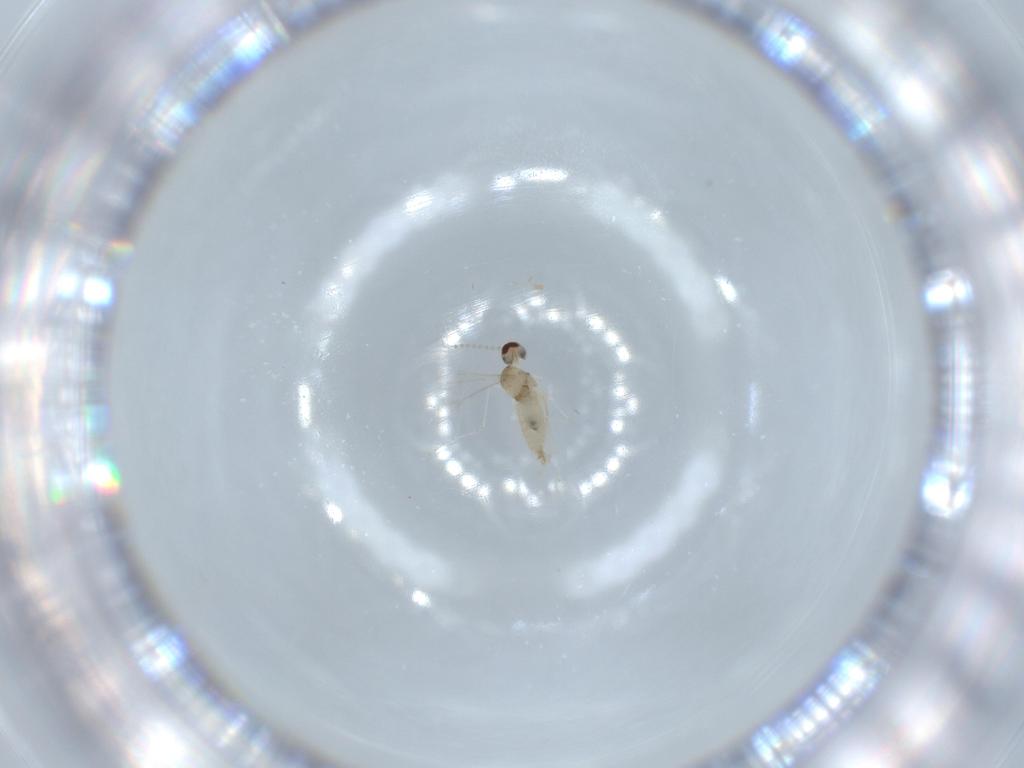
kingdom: Animalia
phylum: Arthropoda
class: Insecta
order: Diptera
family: Cecidomyiidae
